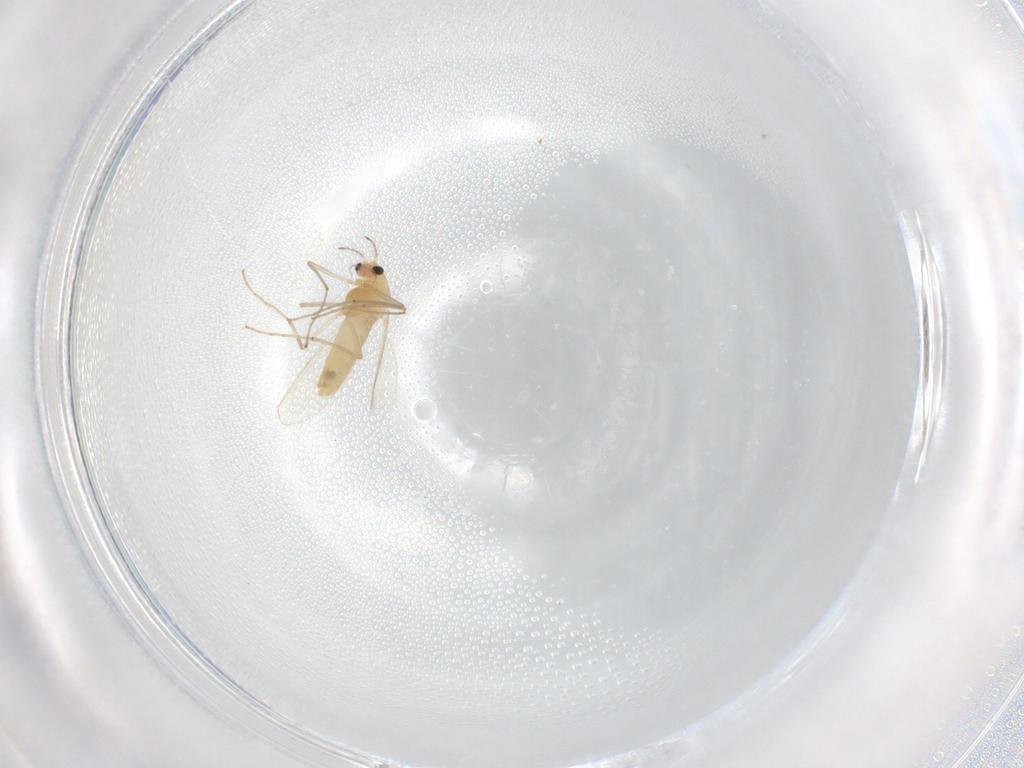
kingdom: Animalia
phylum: Arthropoda
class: Insecta
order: Diptera
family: Chironomidae
